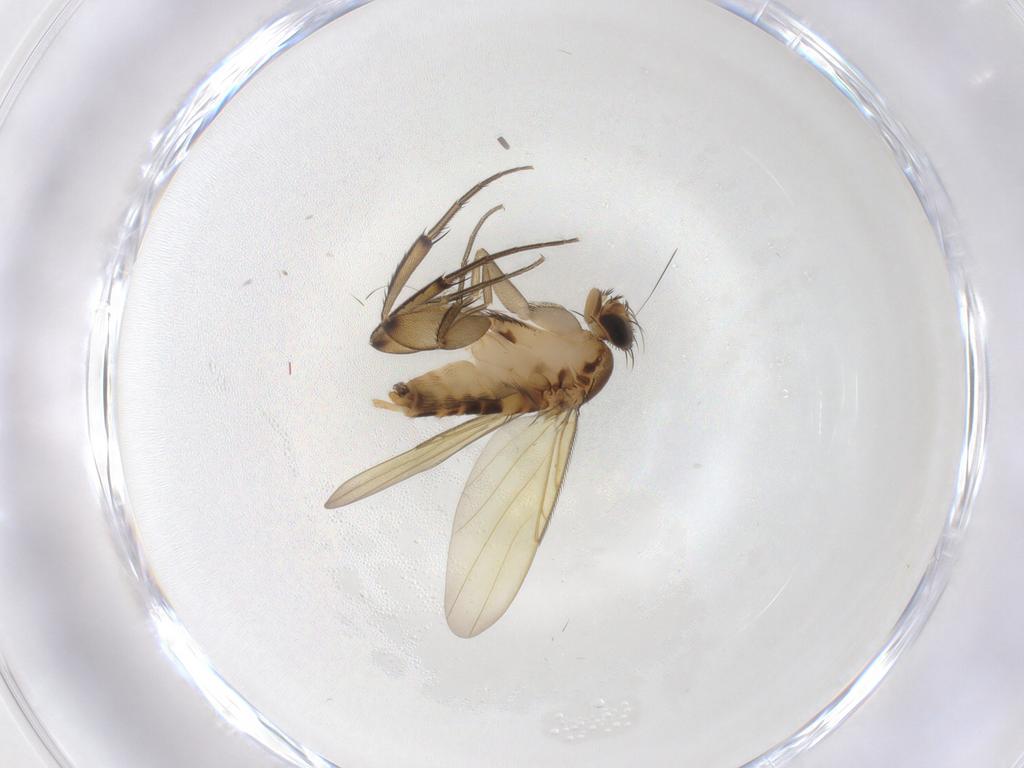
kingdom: Animalia
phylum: Arthropoda
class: Insecta
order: Diptera
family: Phoridae
